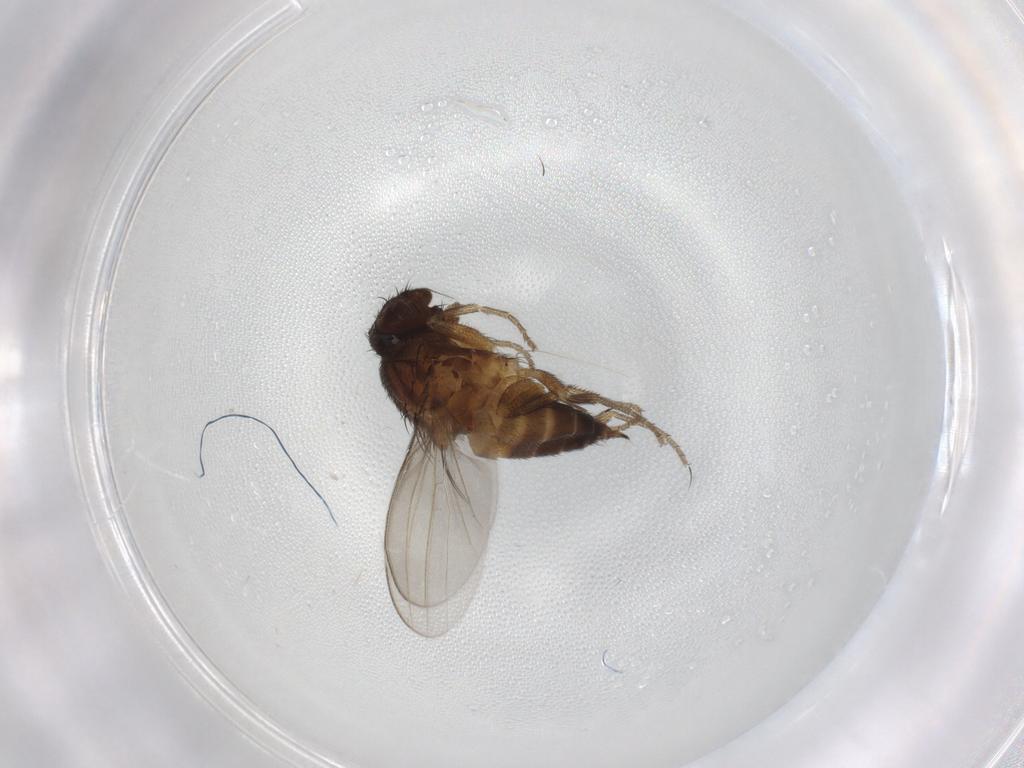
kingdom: Animalia
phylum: Arthropoda
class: Insecta
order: Diptera
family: Milichiidae
